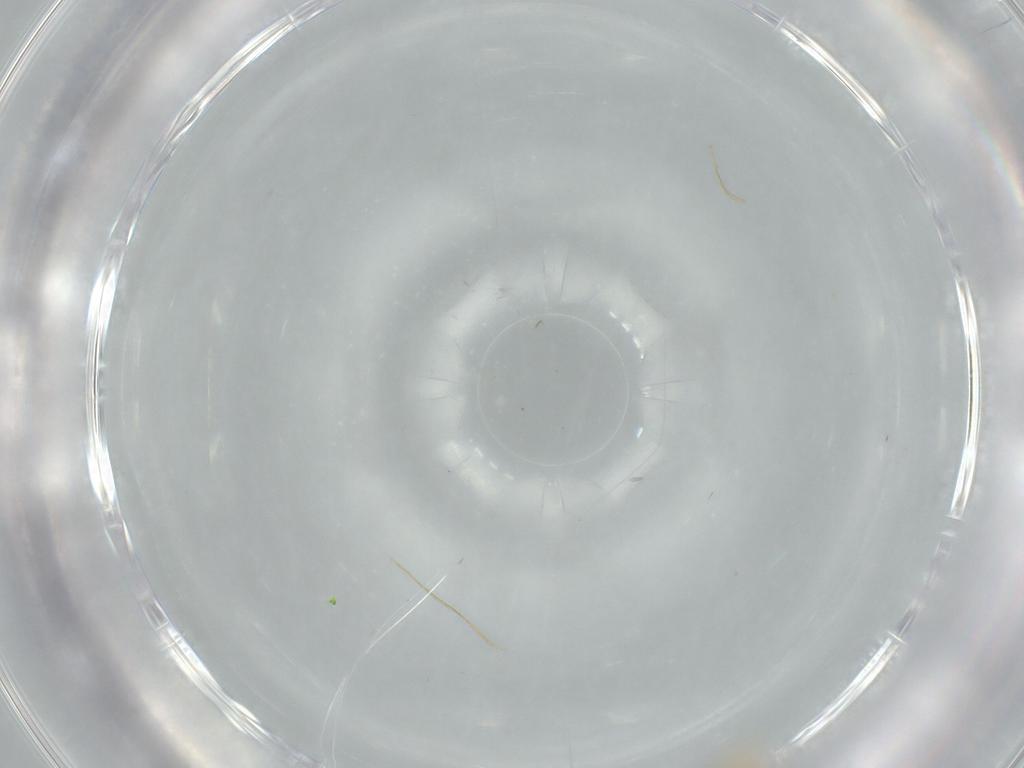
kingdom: Animalia
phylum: Arthropoda
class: Insecta
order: Diptera
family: Cecidomyiidae
